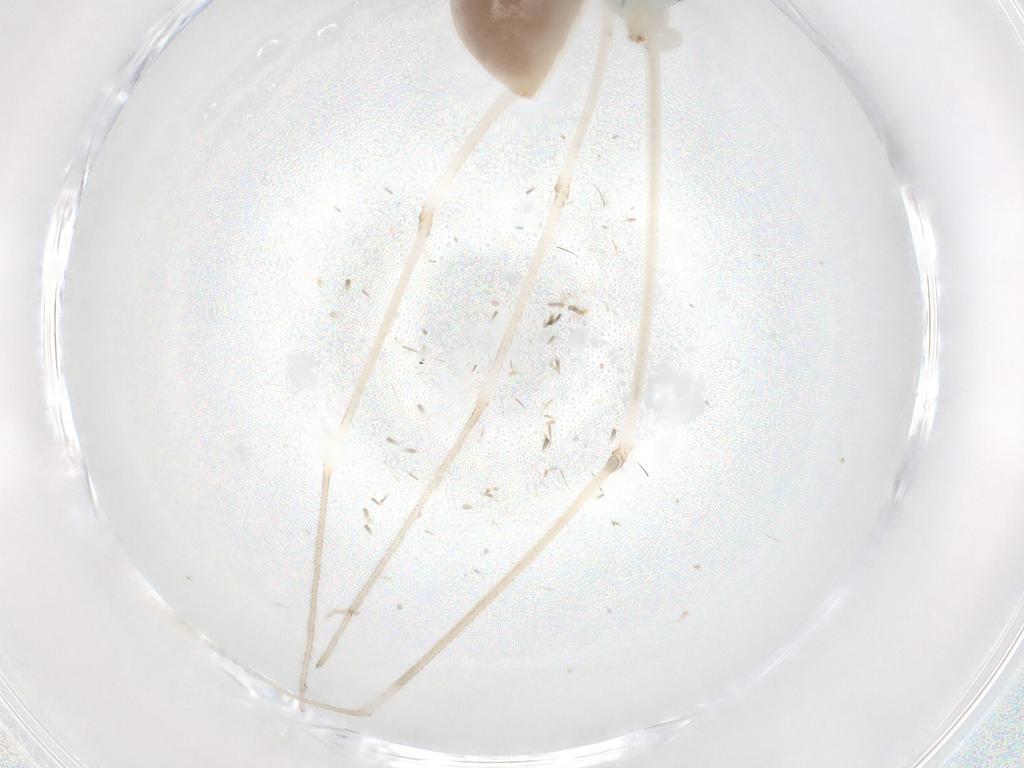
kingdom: Animalia
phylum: Arthropoda
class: Arachnida
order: Araneae
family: Pholcidae
